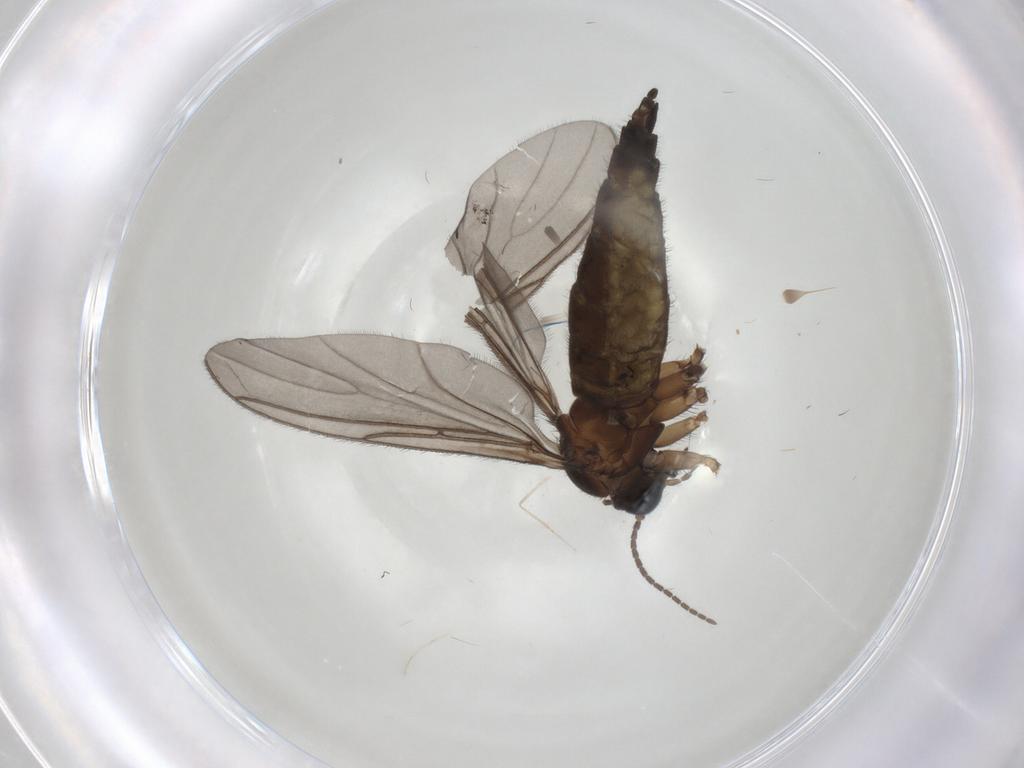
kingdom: Animalia
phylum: Arthropoda
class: Insecta
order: Diptera
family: Sciaridae
